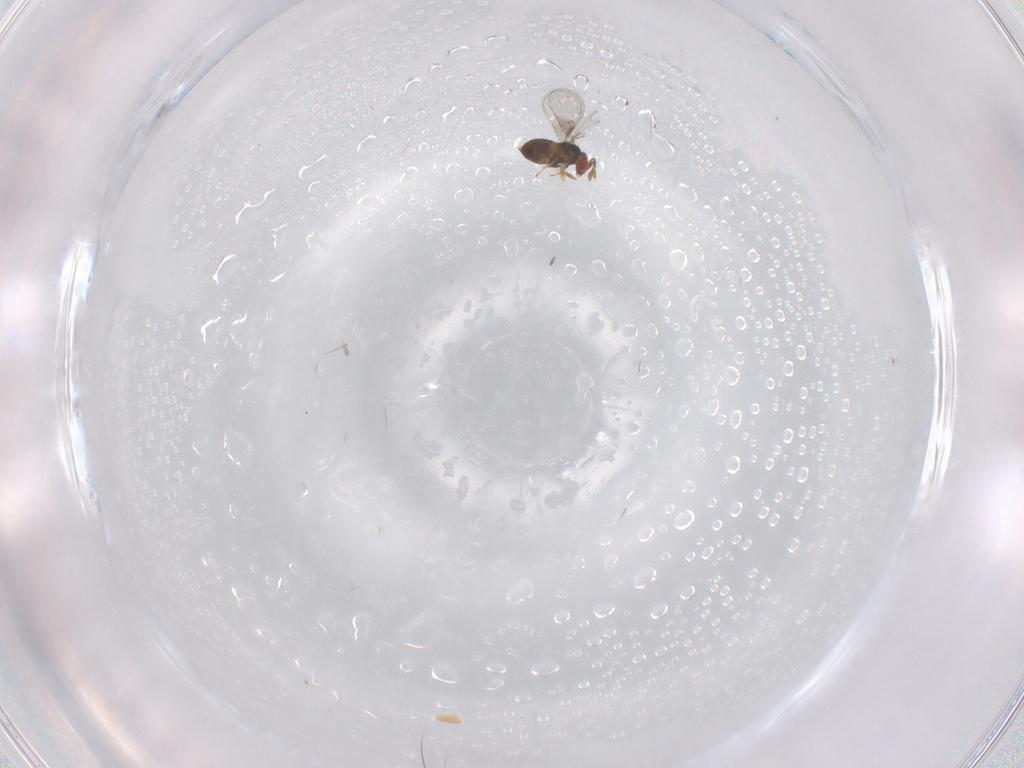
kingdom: Animalia
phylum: Arthropoda
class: Insecta
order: Hymenoptera
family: Trichogrammatidae
